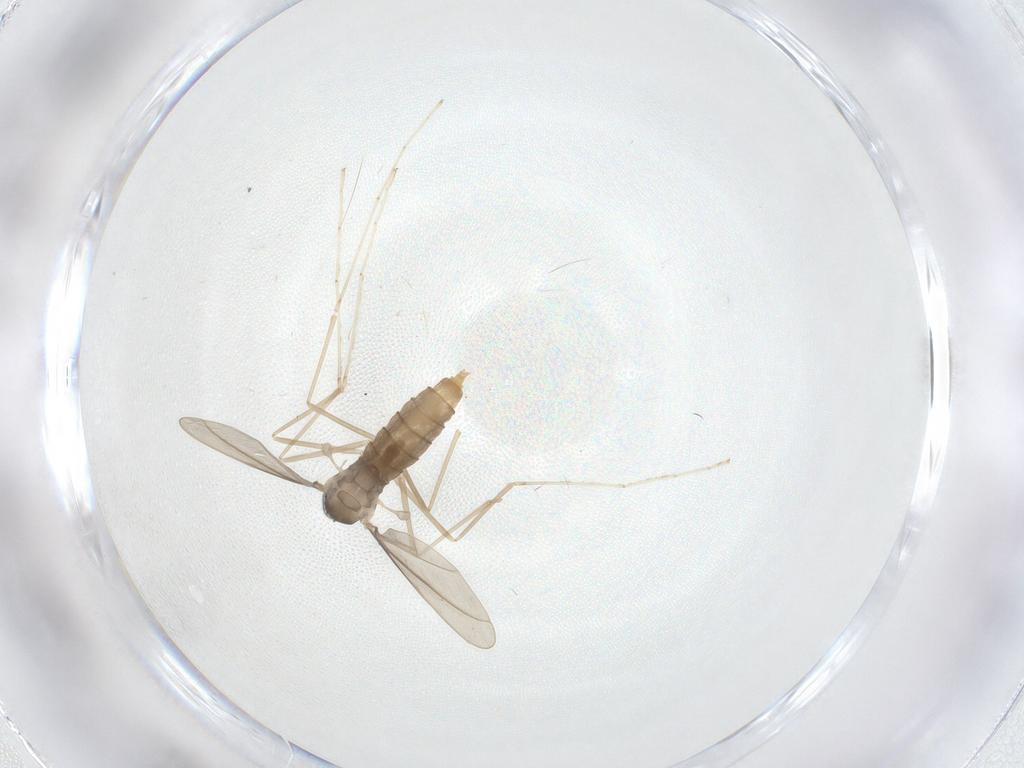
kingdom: Animalia
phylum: Arthropoda
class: Insecta
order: Diptera
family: Cecidomyiidae
